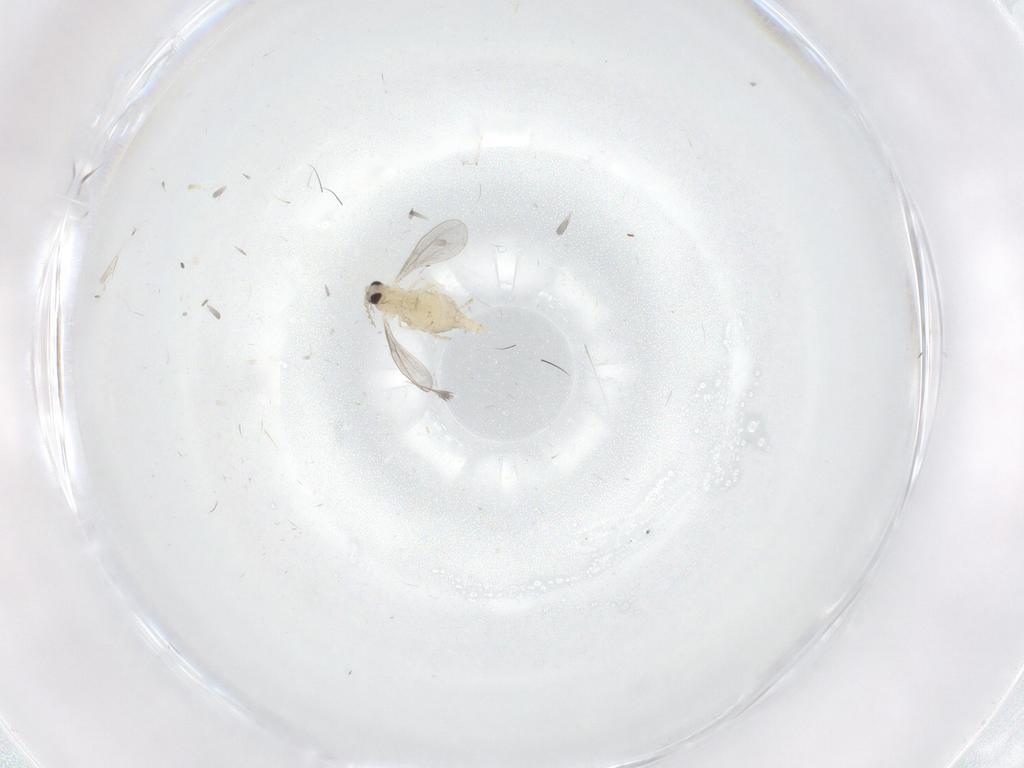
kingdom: Animalia
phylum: Arthropoda
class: Insecta
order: Diptera
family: Cecidomyiidae
